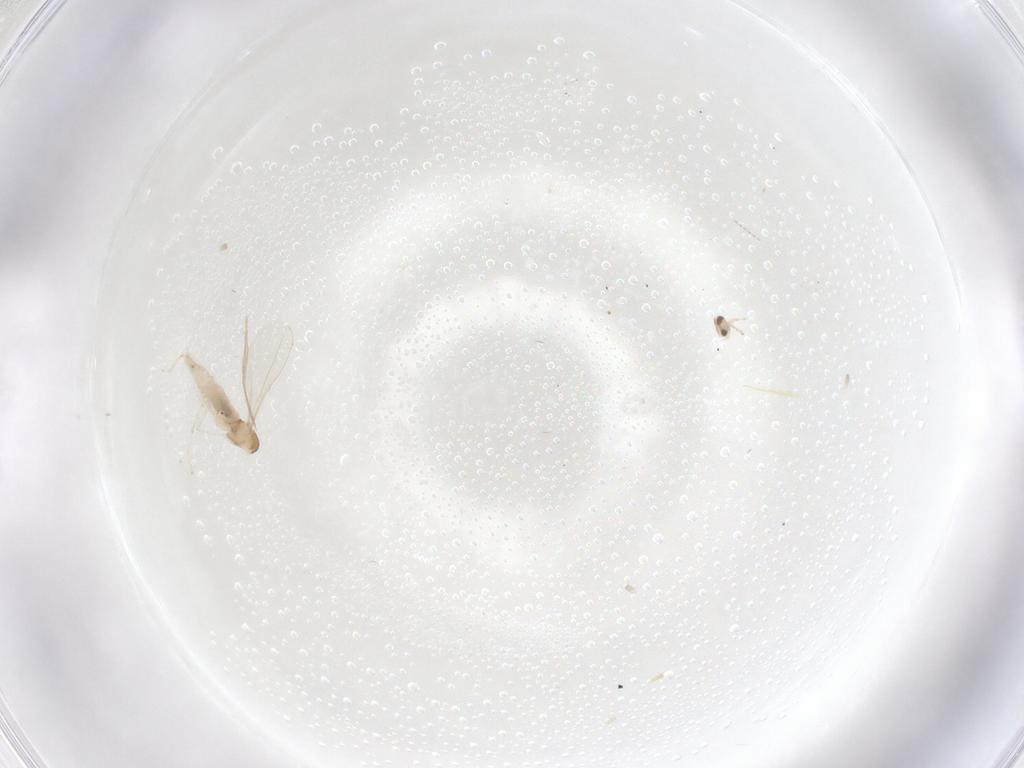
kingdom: Animalia
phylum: Arthropoda
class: Insecta
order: Diptera
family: Cecidomyiidae
